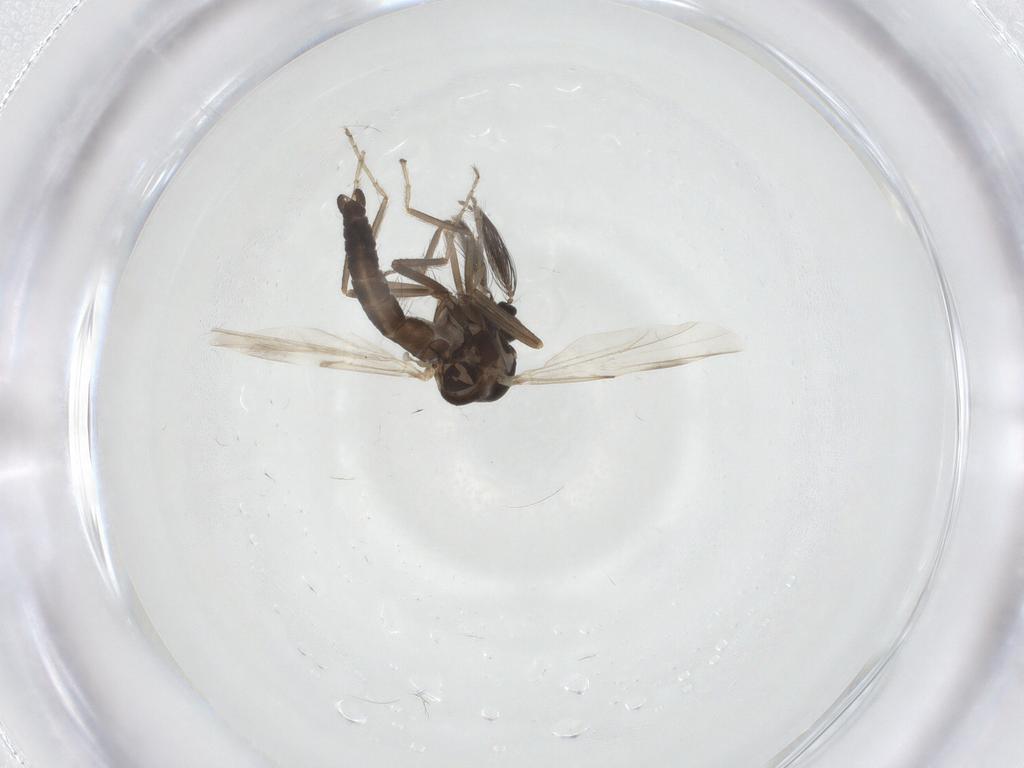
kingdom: Animalia
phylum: Arthropoda
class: Insecta
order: Diptera
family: Ceratopogonidae
